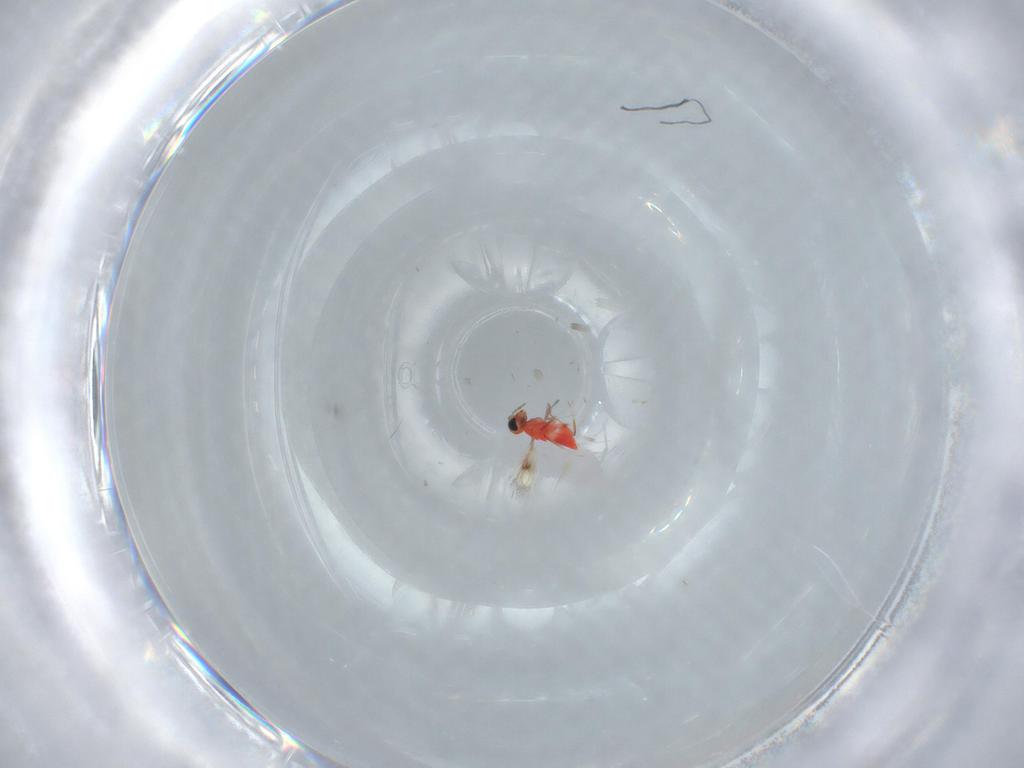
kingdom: Animalia
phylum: Arthropoda
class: Insecta
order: Hymenoptera
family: Trichogrammatidae
